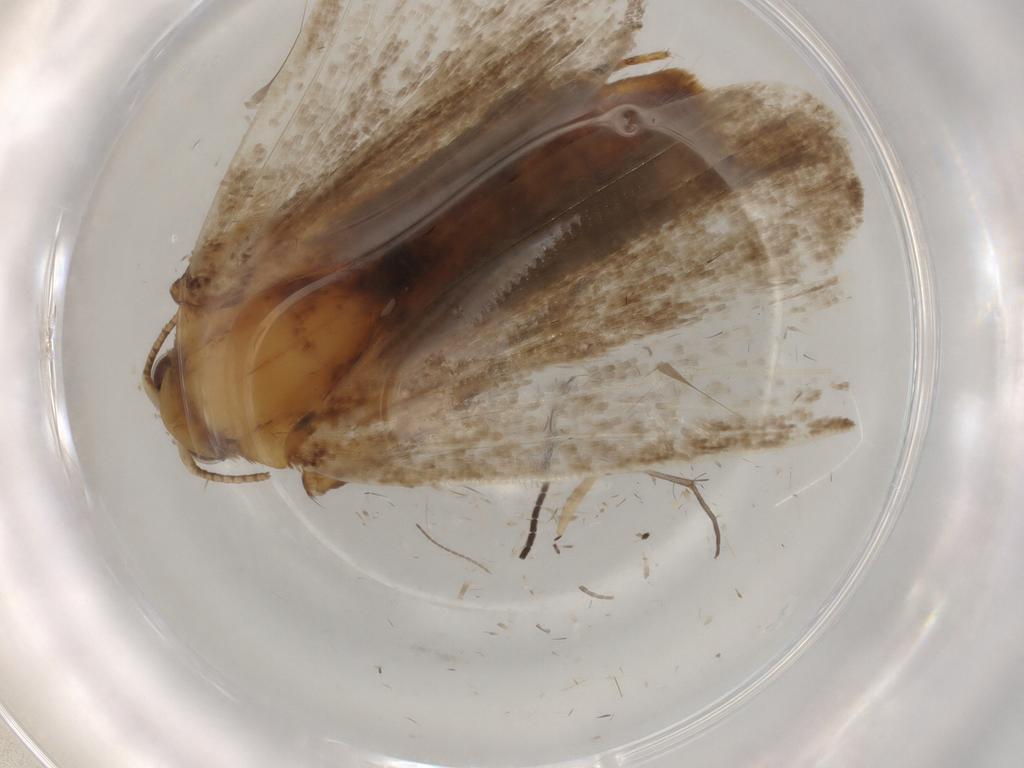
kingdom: Animalia
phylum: Arthropoda
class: Insecta
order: Lepidoptera
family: Erebidae
